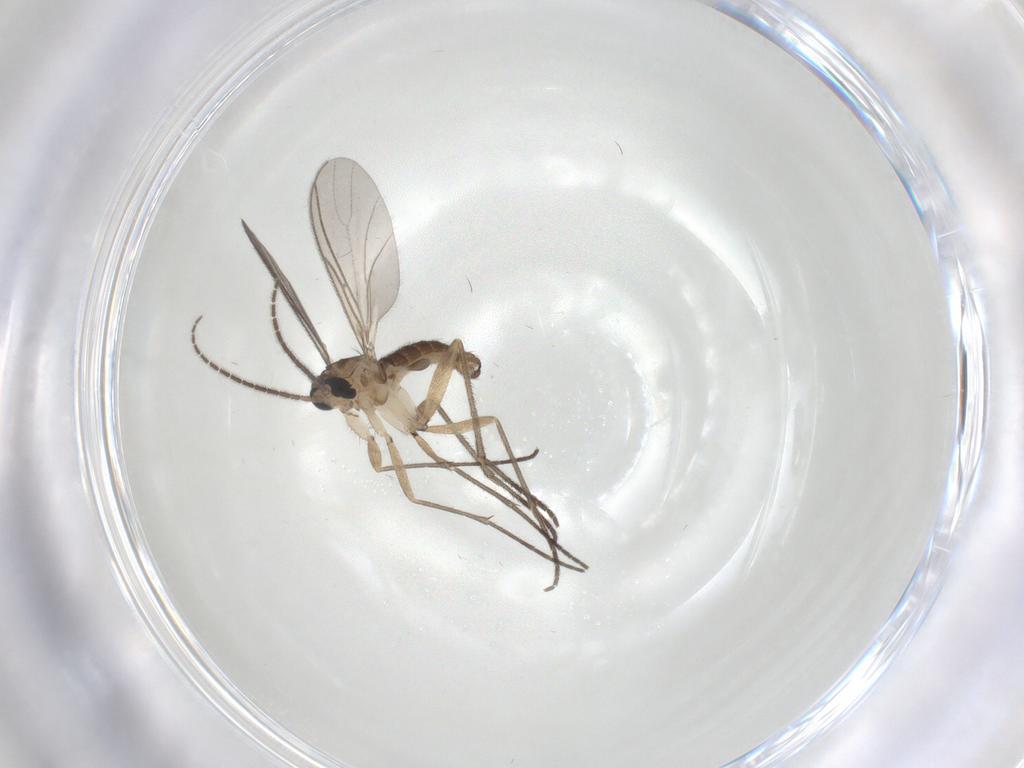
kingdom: Animalia
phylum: Arthropoda
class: Insecta
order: Diptera
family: Sciaridae
